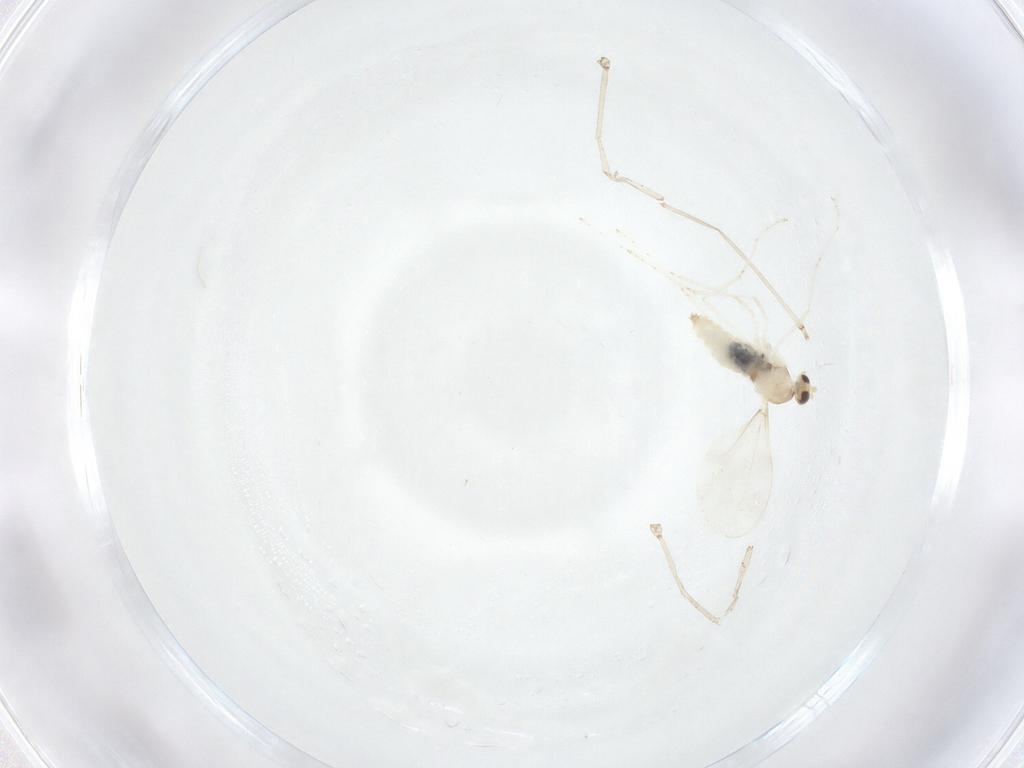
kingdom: Animalia
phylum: Arthropoda
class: Insecta
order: Diptera
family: Cecidomyiidae
